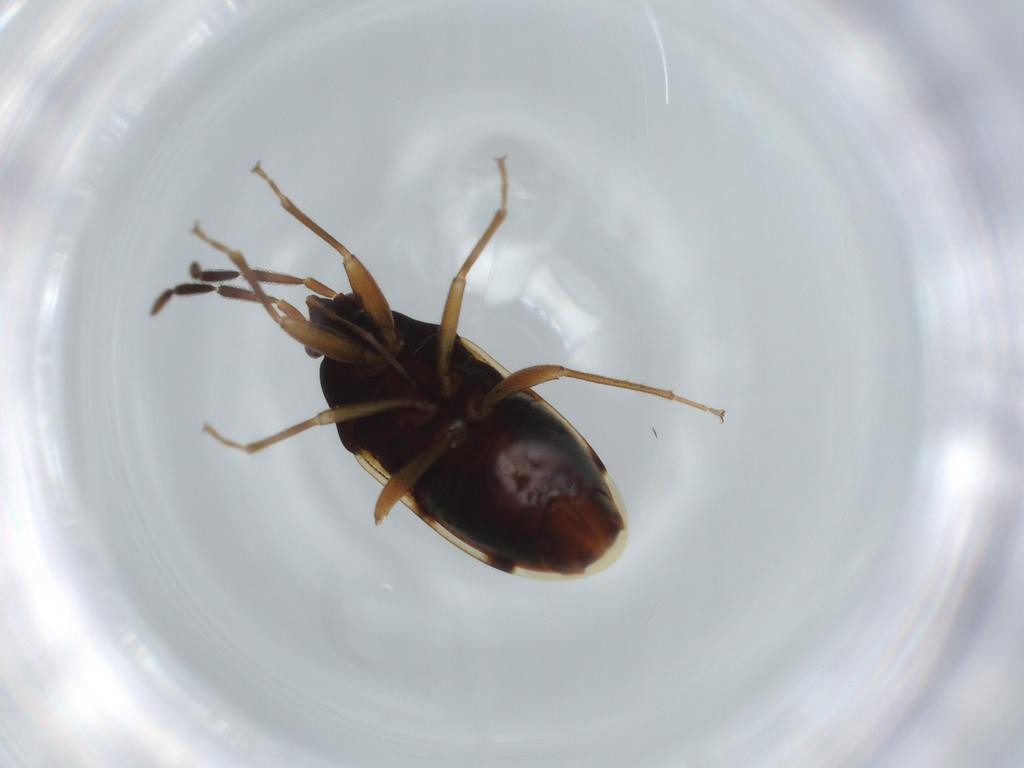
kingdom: Animalia
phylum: Arthropoda
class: Insecta
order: Hemiptera
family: Rhyparochromidae
